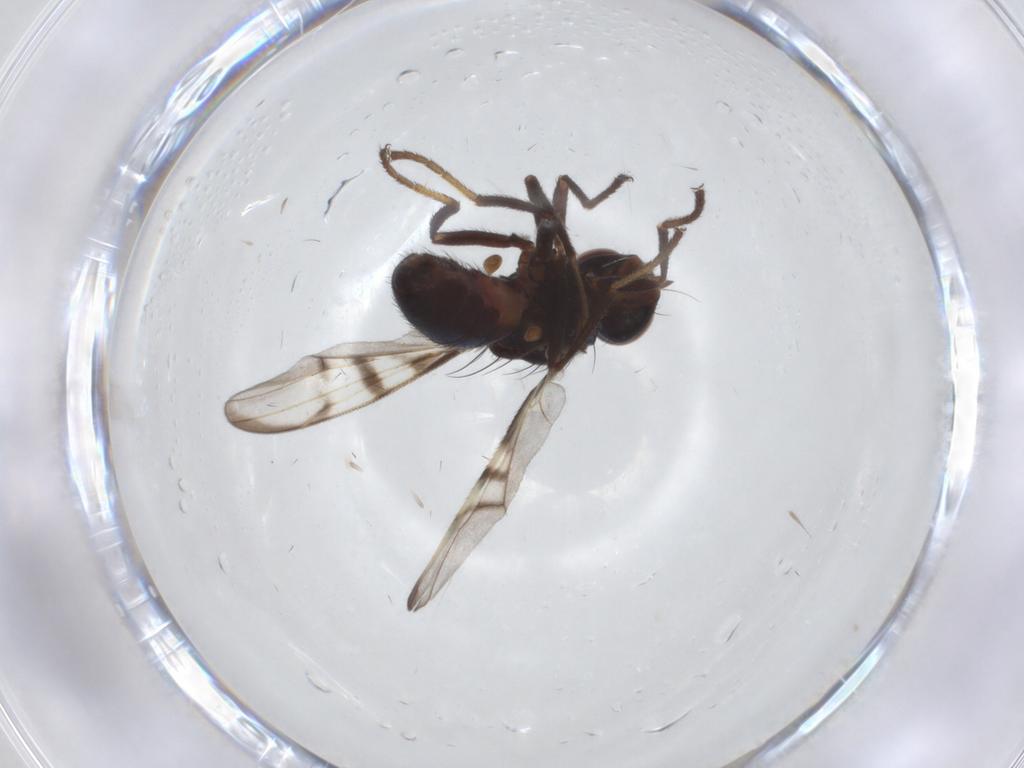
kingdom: Animalia
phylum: Arthropoda
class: Insecta
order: Diptera
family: Platystomatidae
